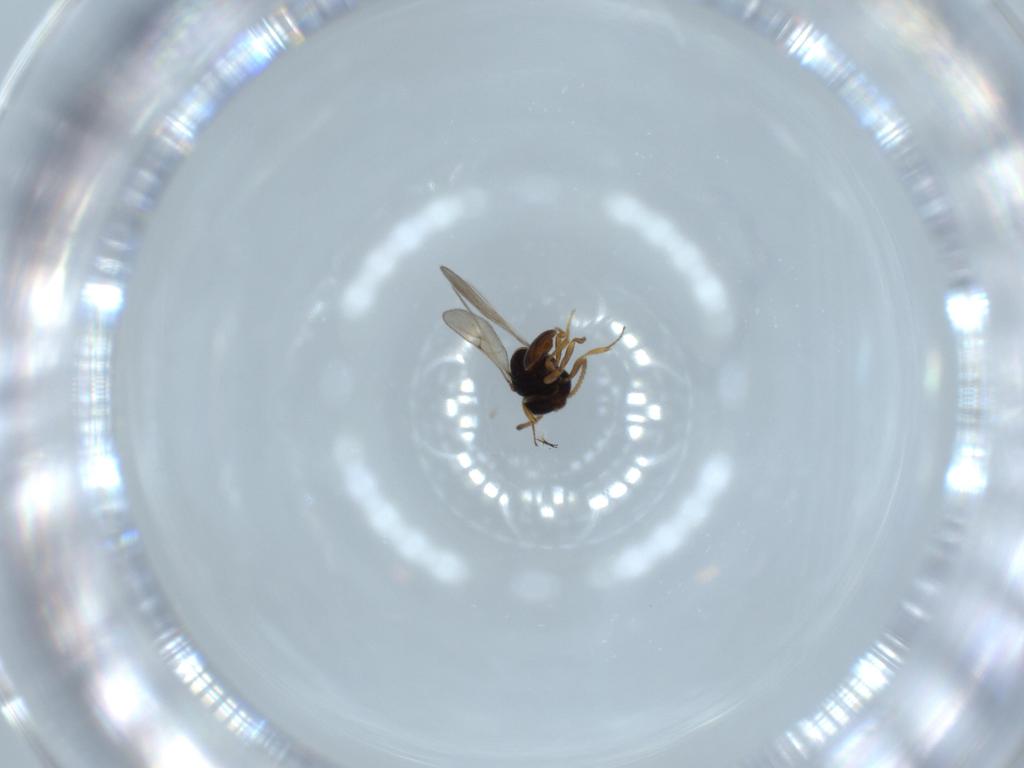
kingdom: Animalia
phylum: Arthropoda
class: Insecta
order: Hymenoptera
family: Scelionidae
